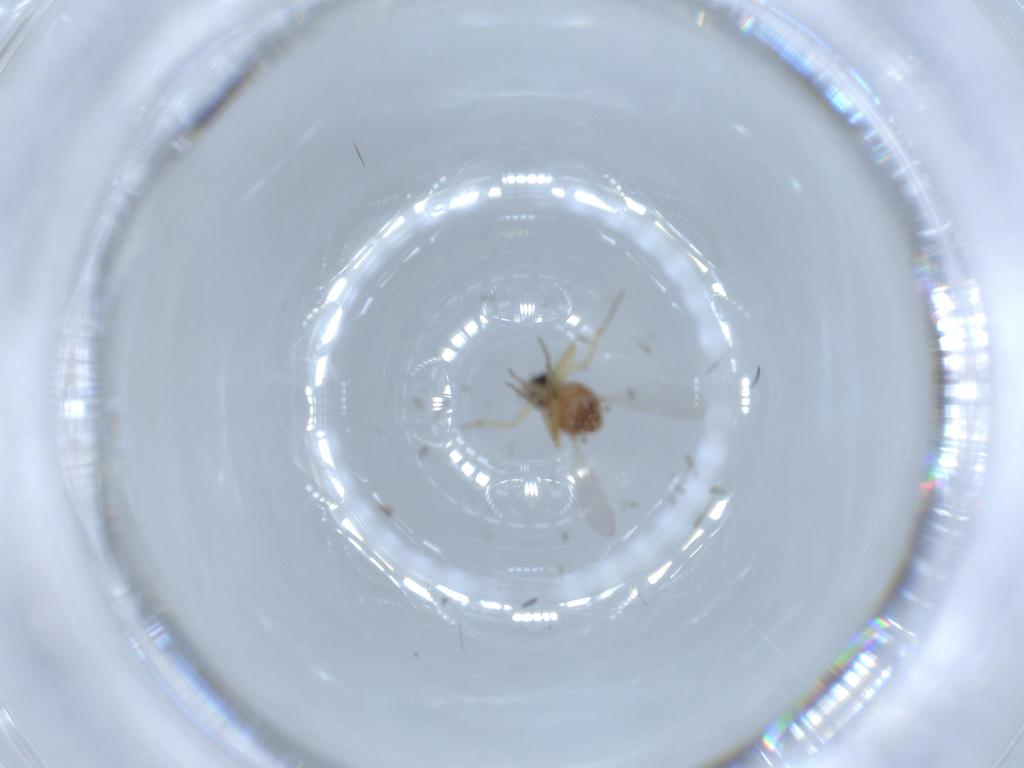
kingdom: Animalia
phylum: Arthropoda
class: Insecta
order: Diptera
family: Ceratopogonidae
